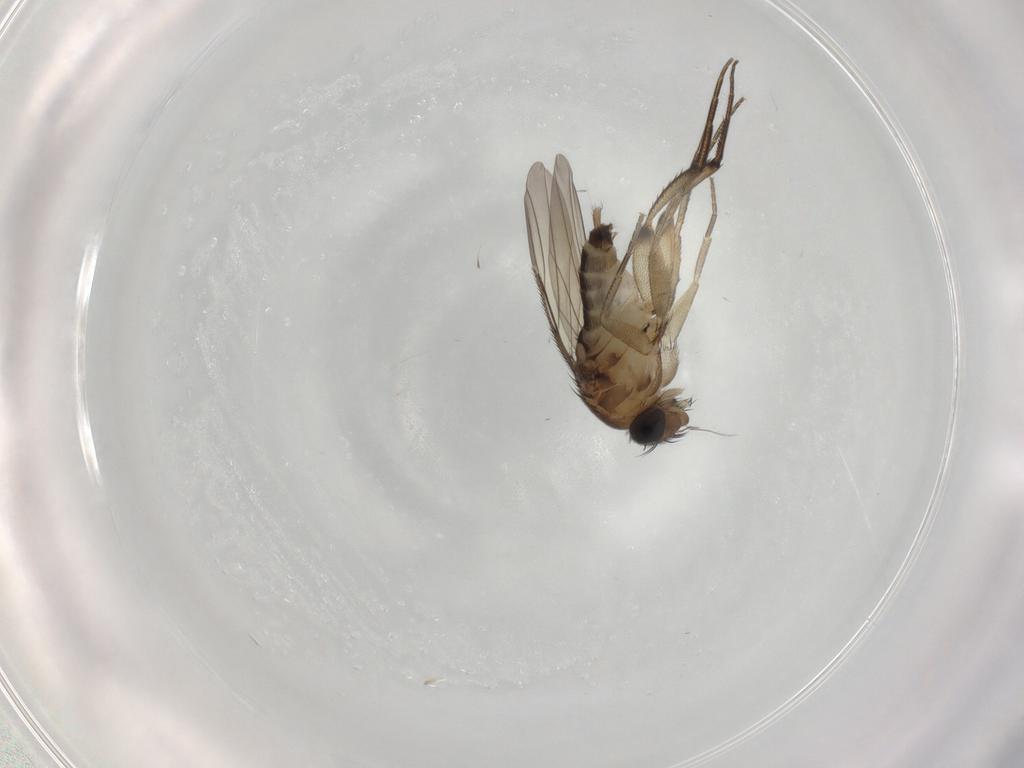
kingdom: Animalia
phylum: Arthropoda
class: Insecta
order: Diptera
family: Phoridae
